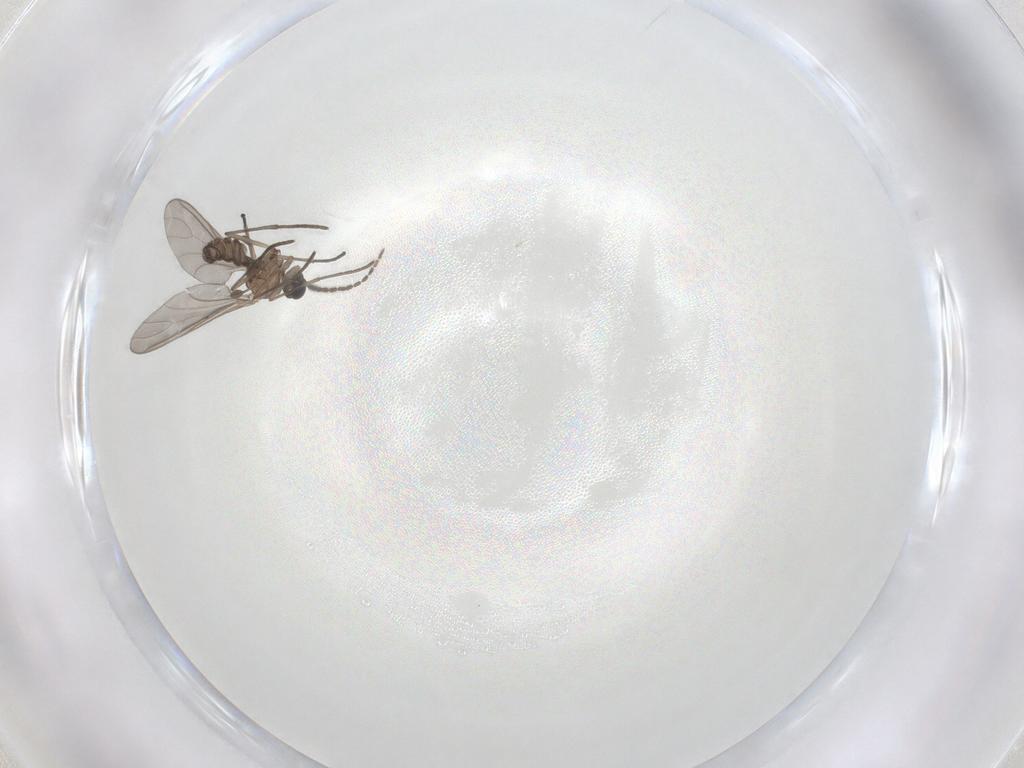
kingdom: Animalia
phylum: Arthropoda
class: Insecta
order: Diptera
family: Sciaridae
